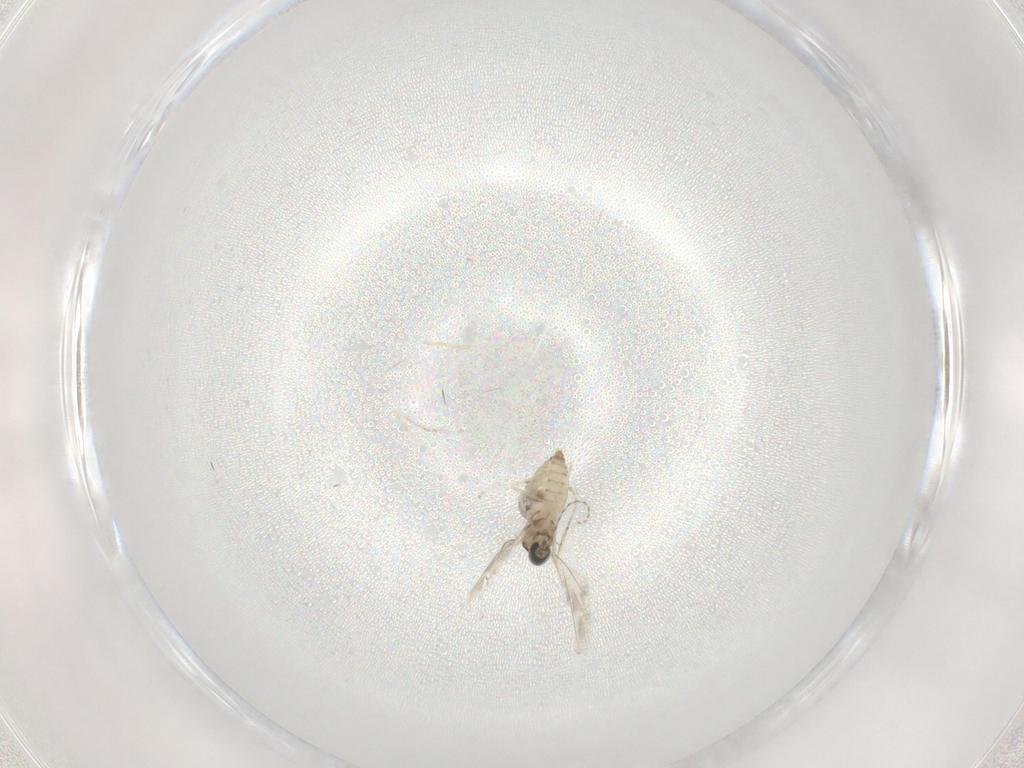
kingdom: Animalia
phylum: Arthropoda
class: Insecta
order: Diptera
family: Cecidomyiidae
